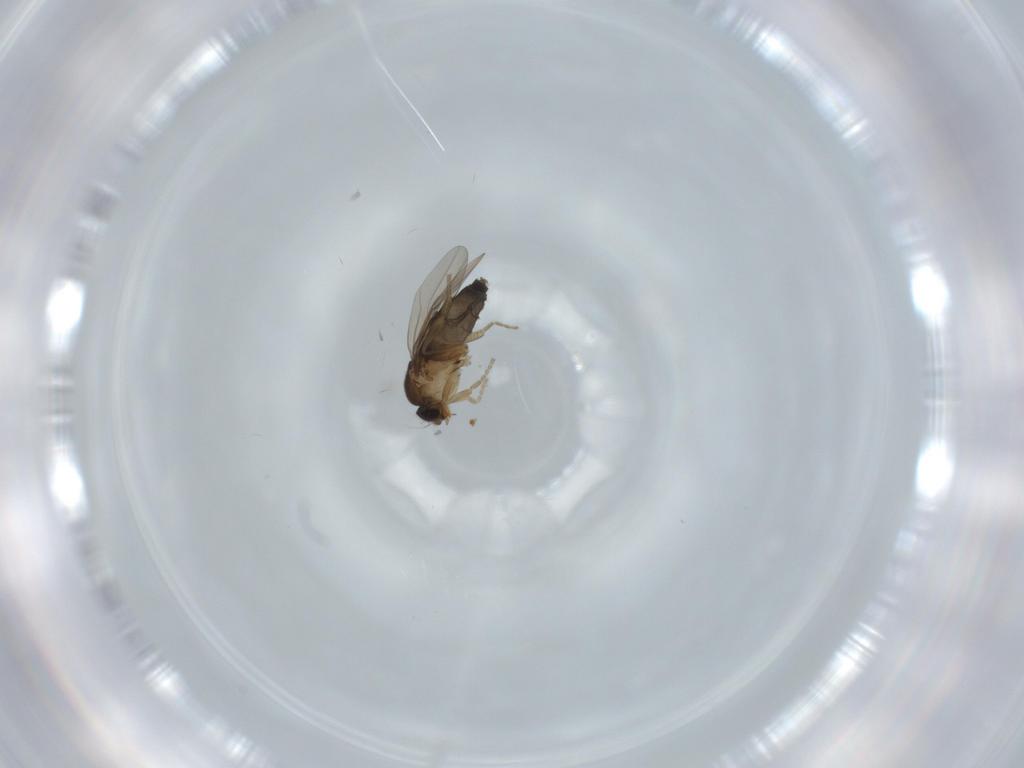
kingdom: Animalia
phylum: Arthropoda
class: Insecta
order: Diptera
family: Phoridae
